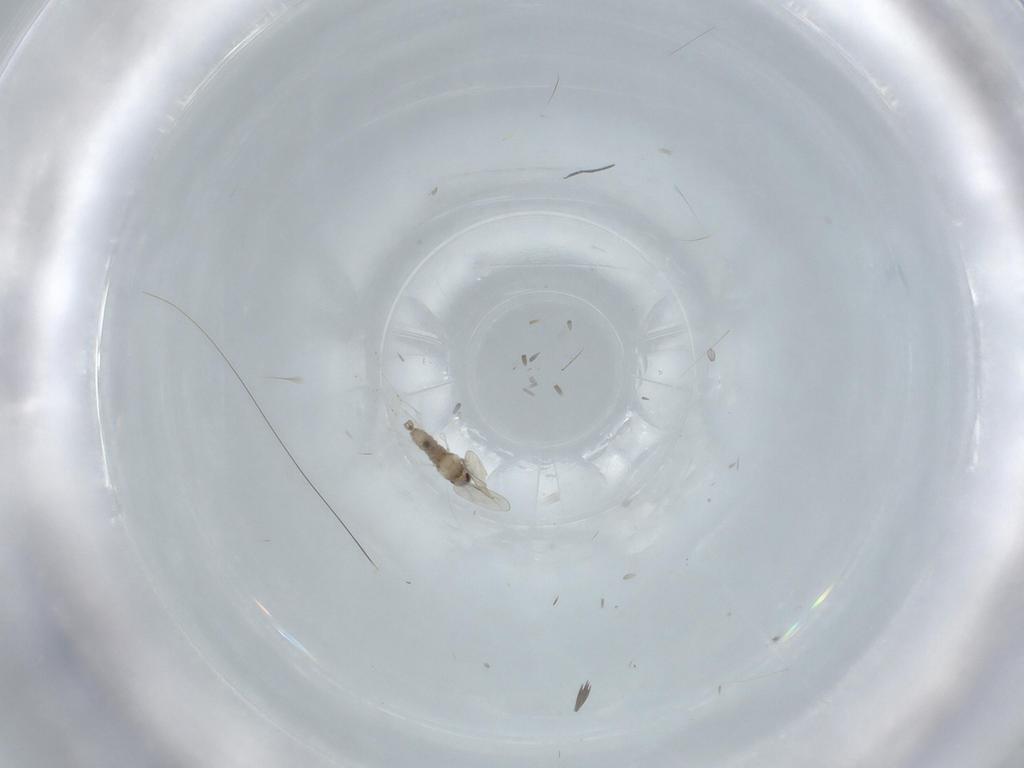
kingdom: Animalia
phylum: Arthropoda
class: Insecta
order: Diptera
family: Cecidomyiidae
